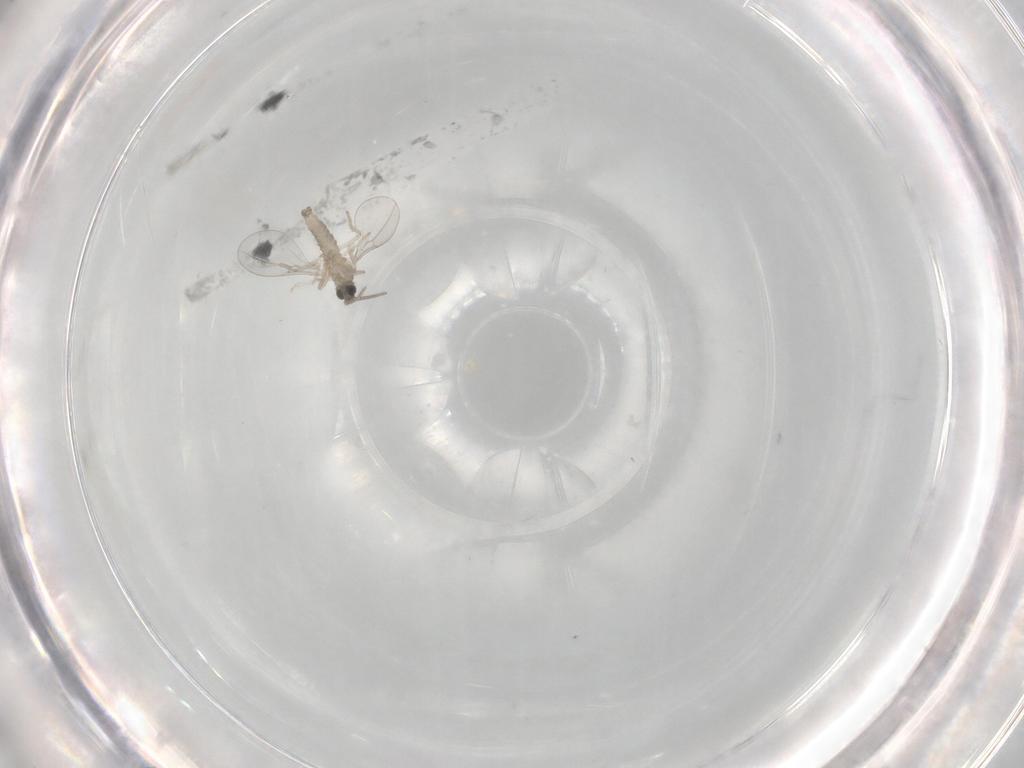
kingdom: Animalia
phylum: Arthropoda
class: Insecta
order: Diptera
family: Cecidomyiidae
